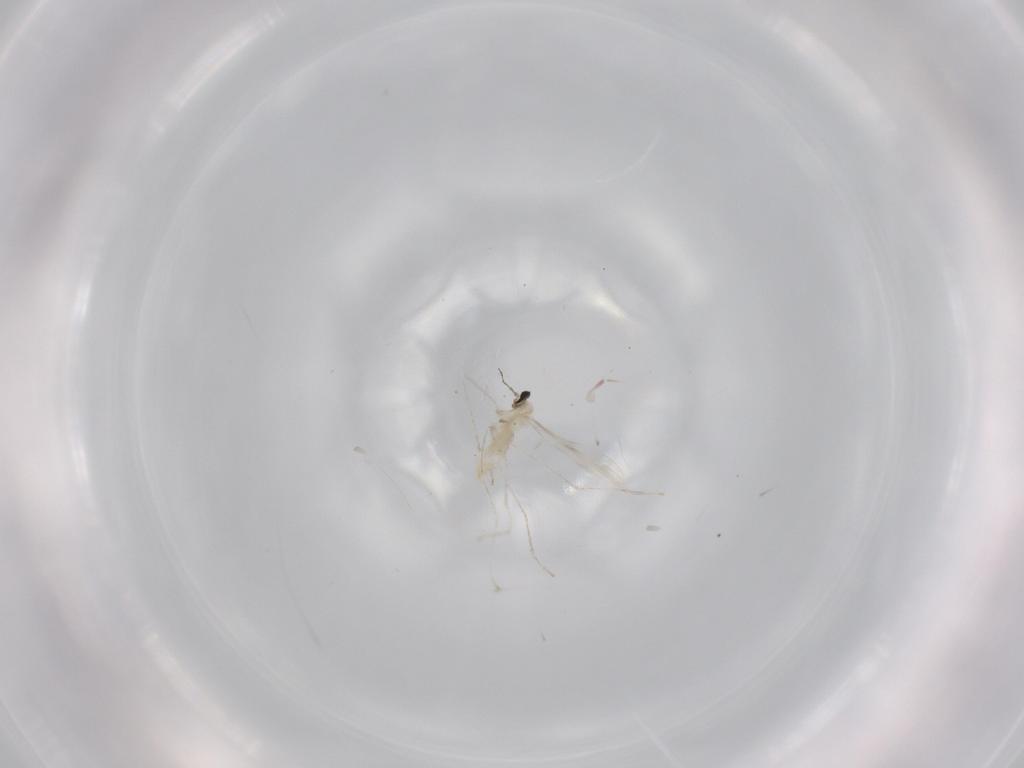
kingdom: Animalia
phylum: Arthropoda
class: Insecta
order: Diptera
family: Cecidomyiidae
